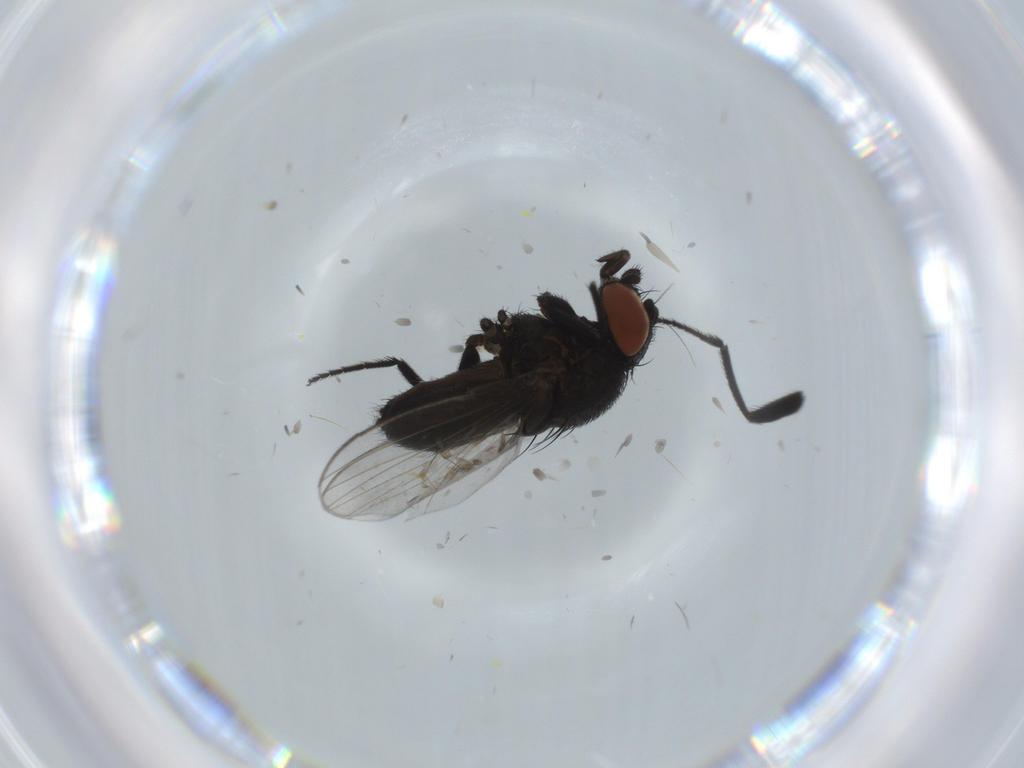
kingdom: Animalia
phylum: Arthropoda
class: Insecta
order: Diptera
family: Milichiidae
